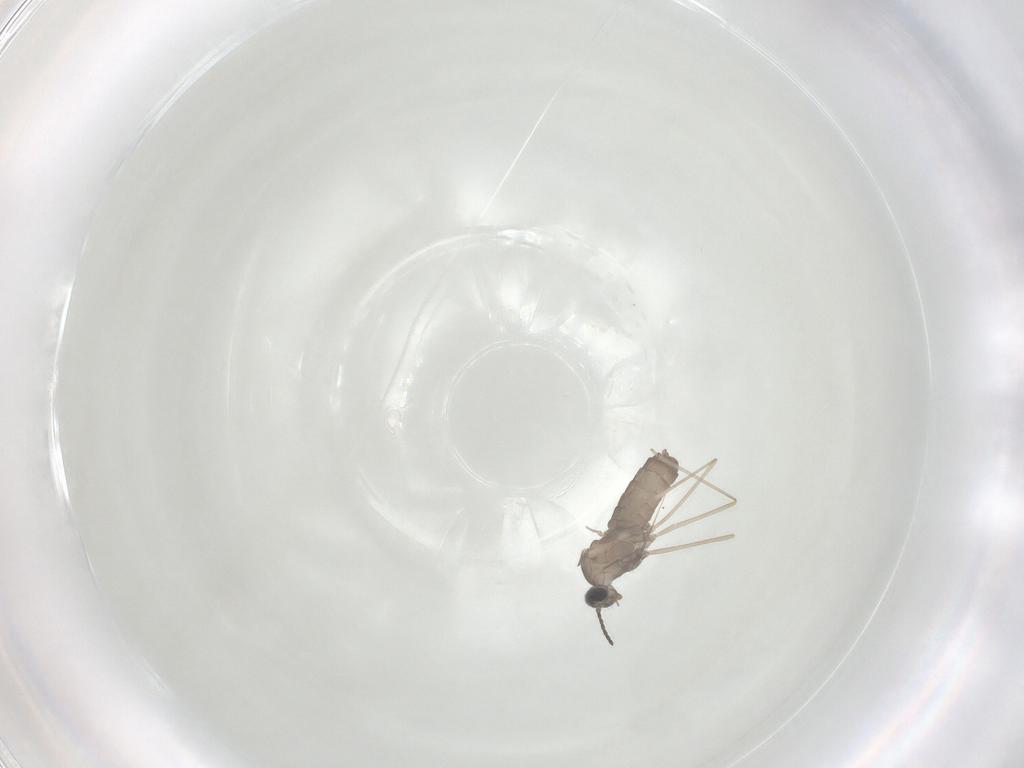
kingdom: Animalia
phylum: Arthropoda
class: Insecta
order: Diptera
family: Cecidomyiidae
